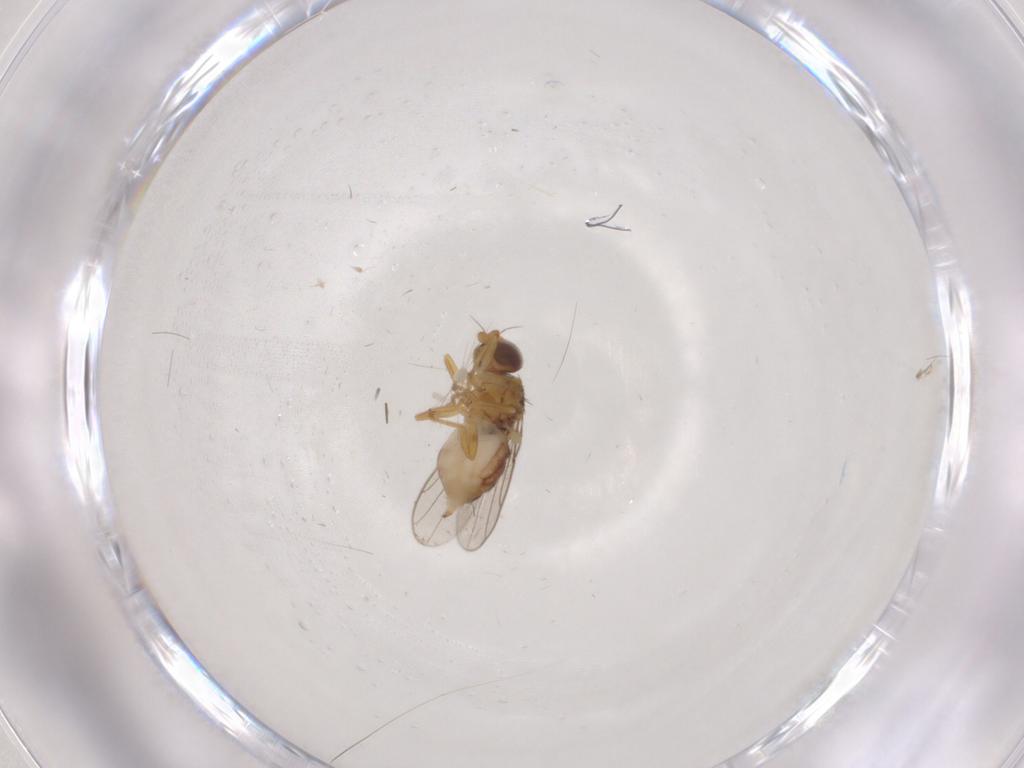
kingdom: Animalia
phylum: Arthropoda
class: Insecta
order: Diptera
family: Chloropidae
